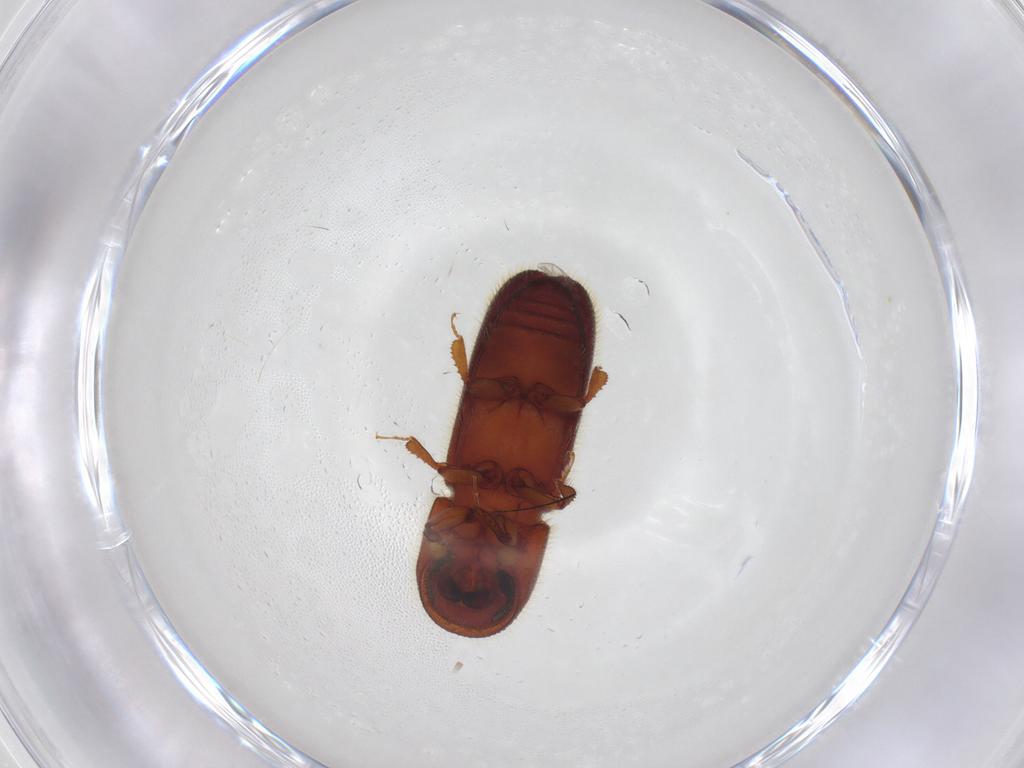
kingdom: Animalia
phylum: Arthropoda
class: Insecta
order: Coleoptera
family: Curculionidae
